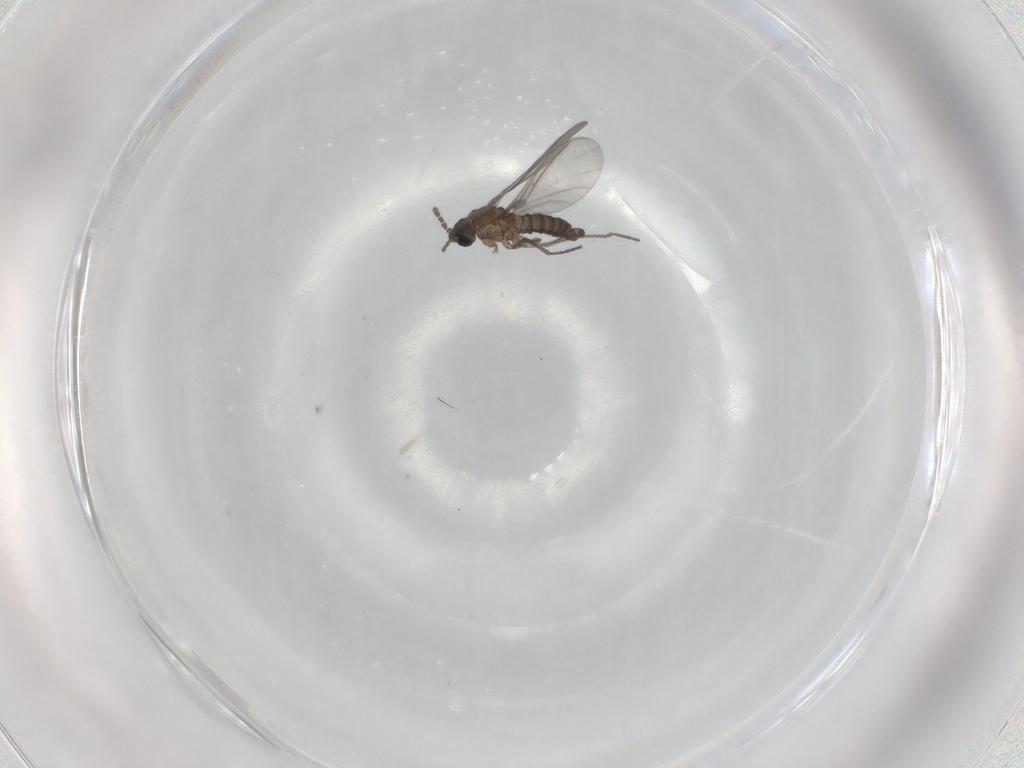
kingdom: Animalia
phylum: Arthropoda
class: Insecta
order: Diptera
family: Sciaridae
